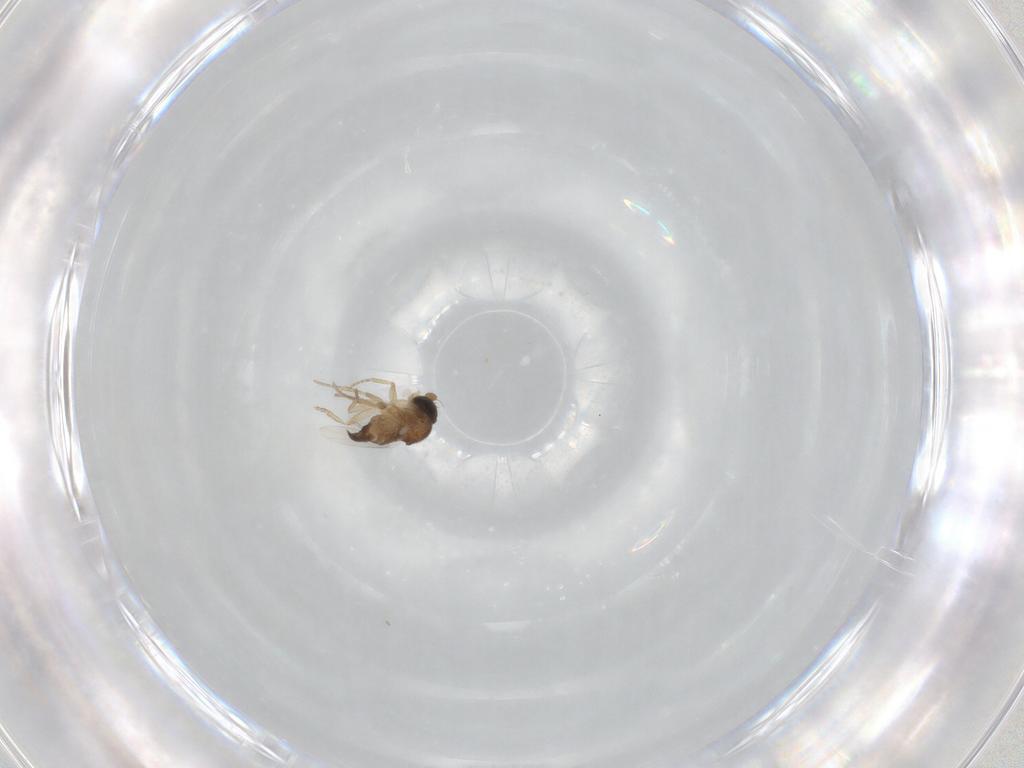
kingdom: Animalia
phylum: Arthropoda
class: Insecta
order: Diptera
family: Phoridae
